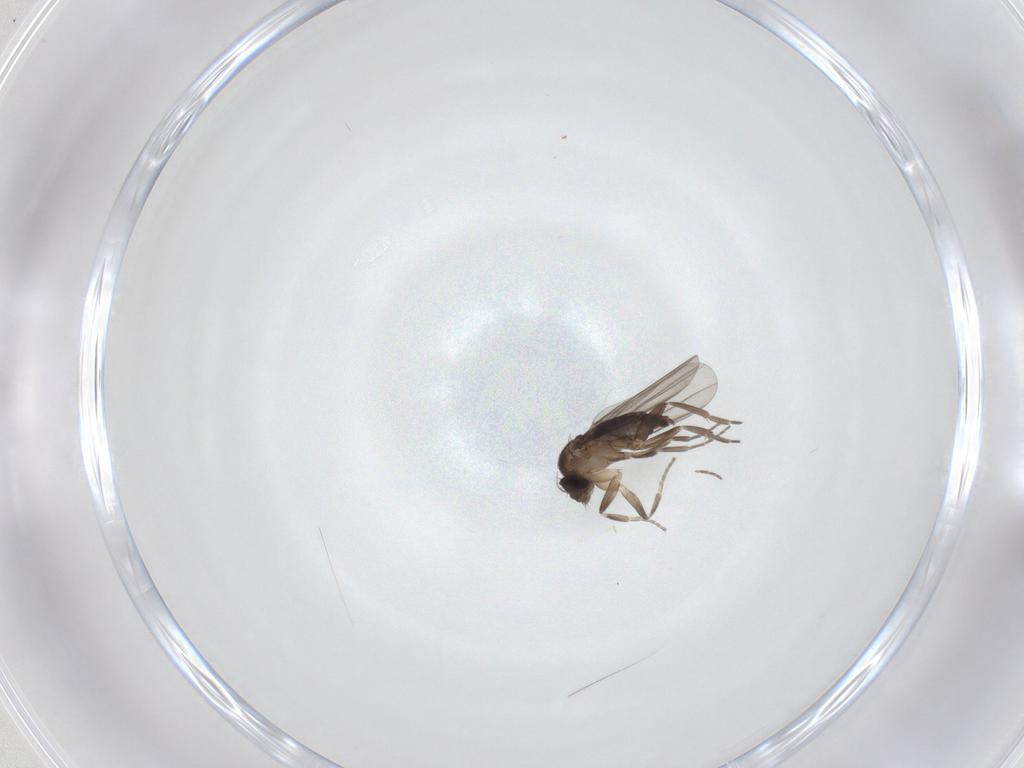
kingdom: Animalia
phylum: Arthropoda
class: Insecta
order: Diptera
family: Phoridae
